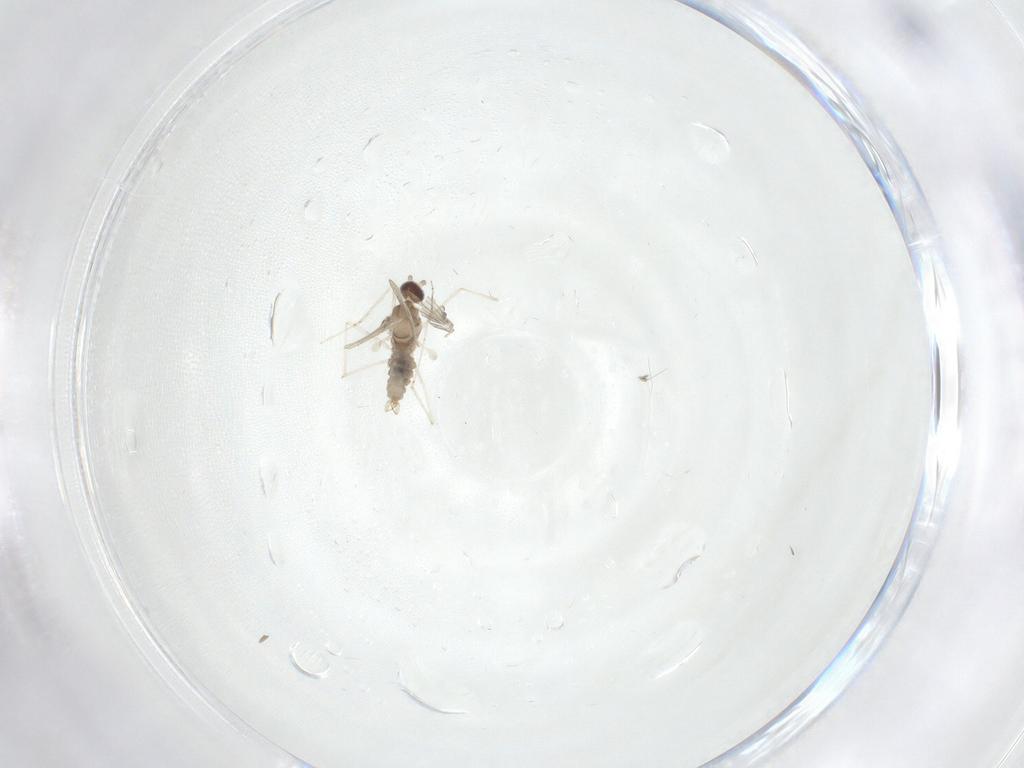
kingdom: Animalia
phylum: Arthropoda
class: Insecta
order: Diptera
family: Cecidomyiidae
